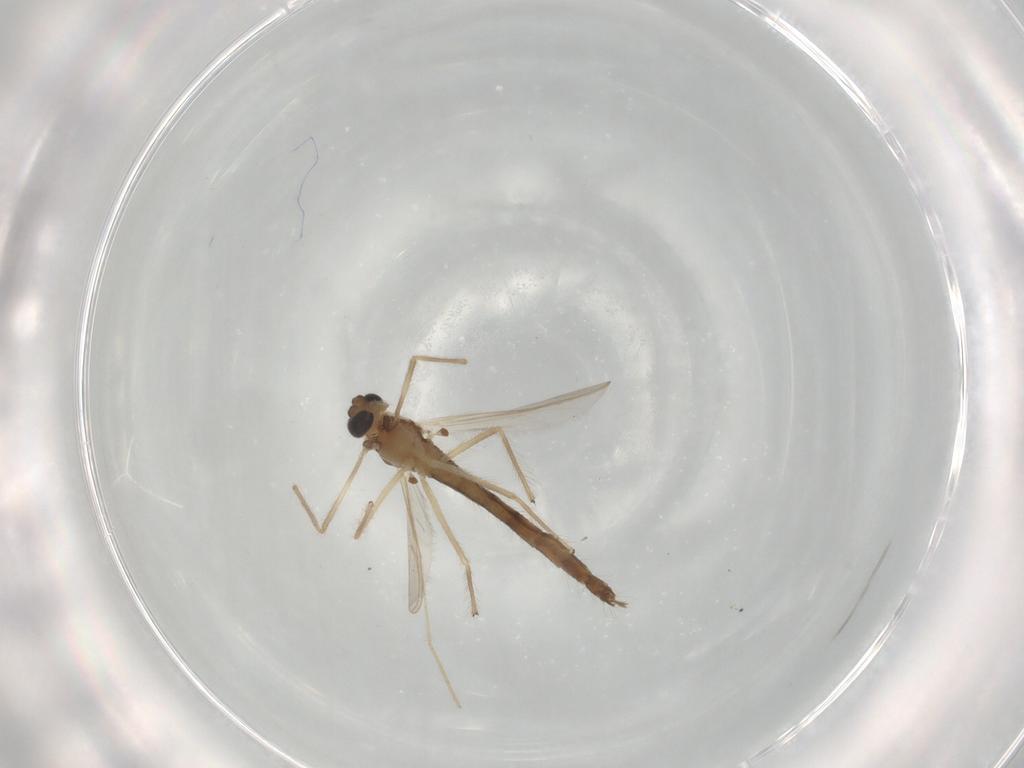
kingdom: Animalia
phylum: Arthropoda
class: Insecta
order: Diptera
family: Chironomidae
